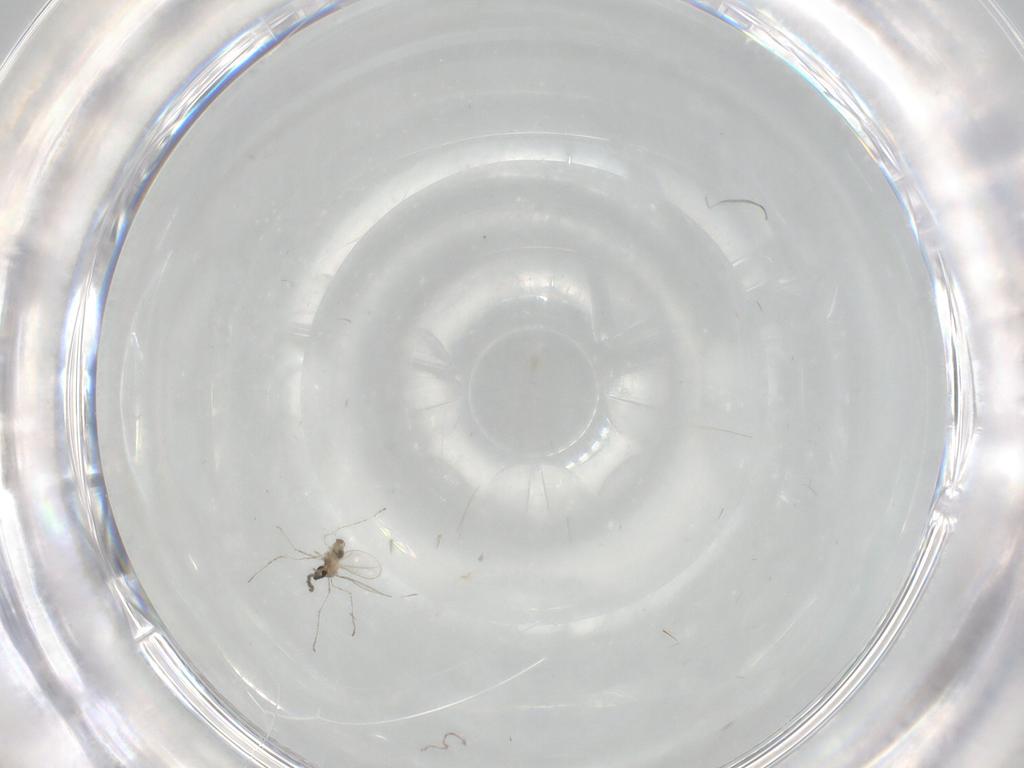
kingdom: Animalia
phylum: Arthropoda
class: Insecta
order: Diptera
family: Cecidomyiidae
